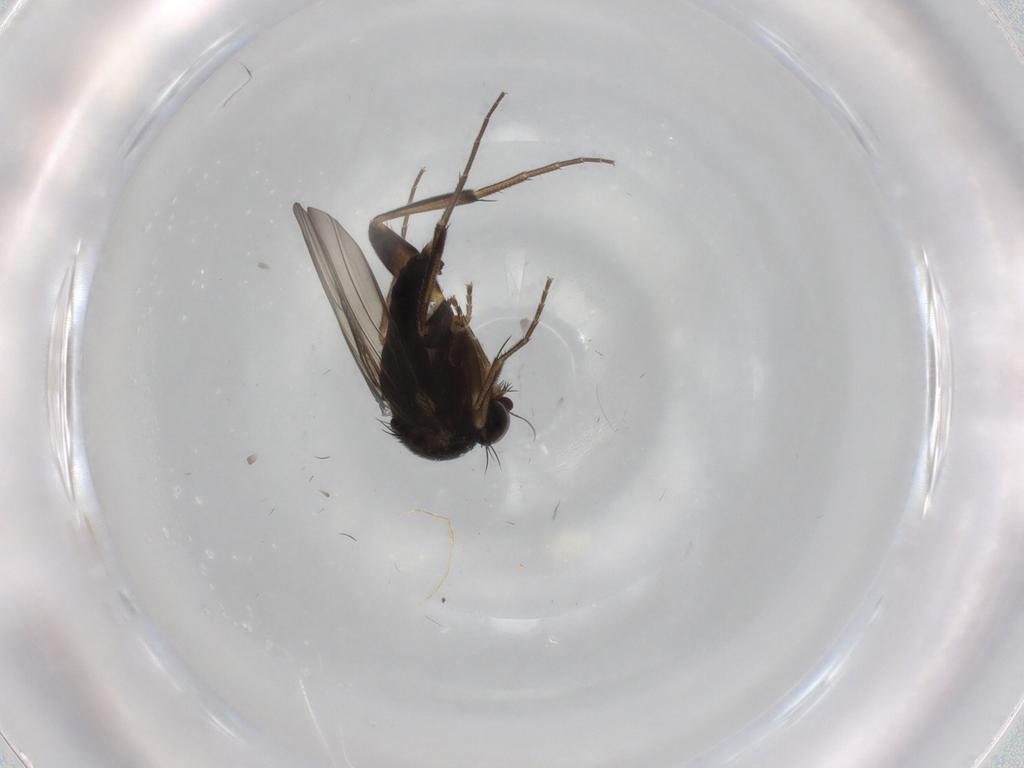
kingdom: Animalia
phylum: Arthropoda
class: Insecta
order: Diptera
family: Phoridae
